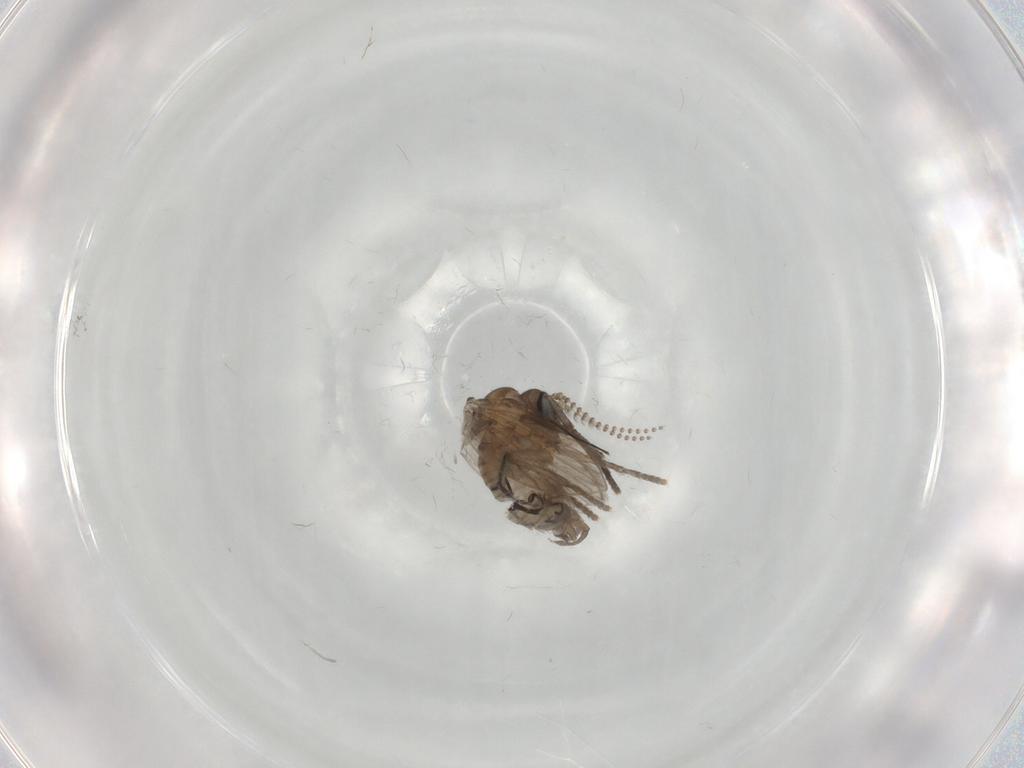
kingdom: Animalia
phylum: Arthropoda
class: Insecta
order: Diptera
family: Psychodidae
